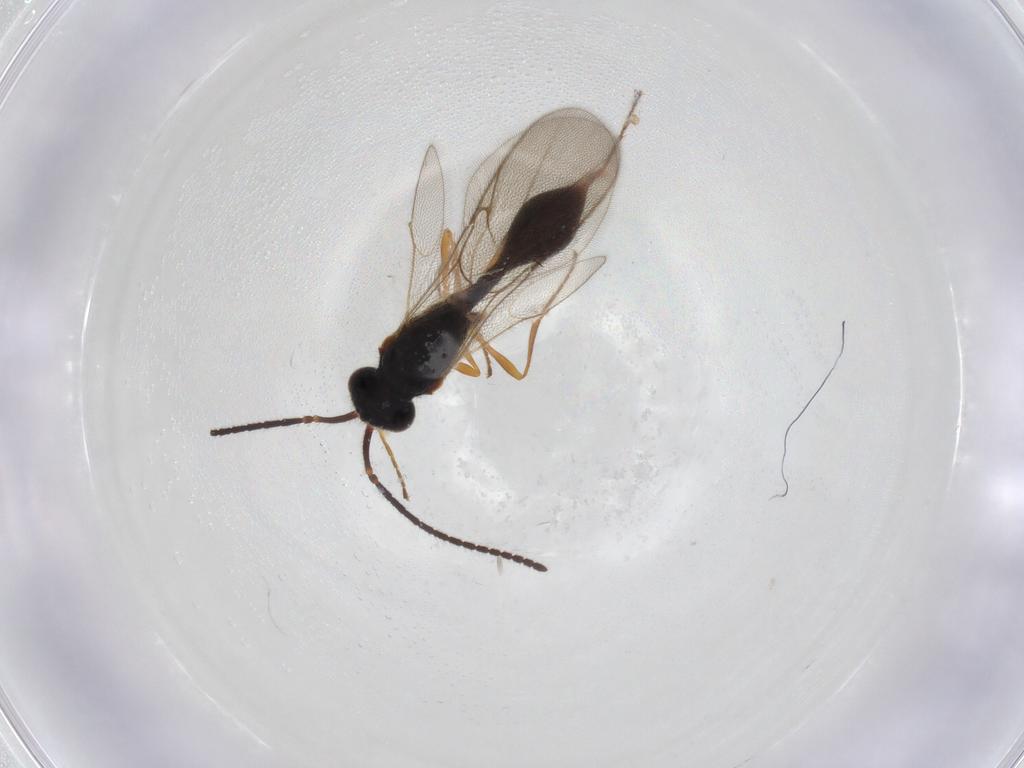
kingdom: Animalia
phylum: Arthropoda
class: Insecta
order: Hymenoptera
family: Formicidae
